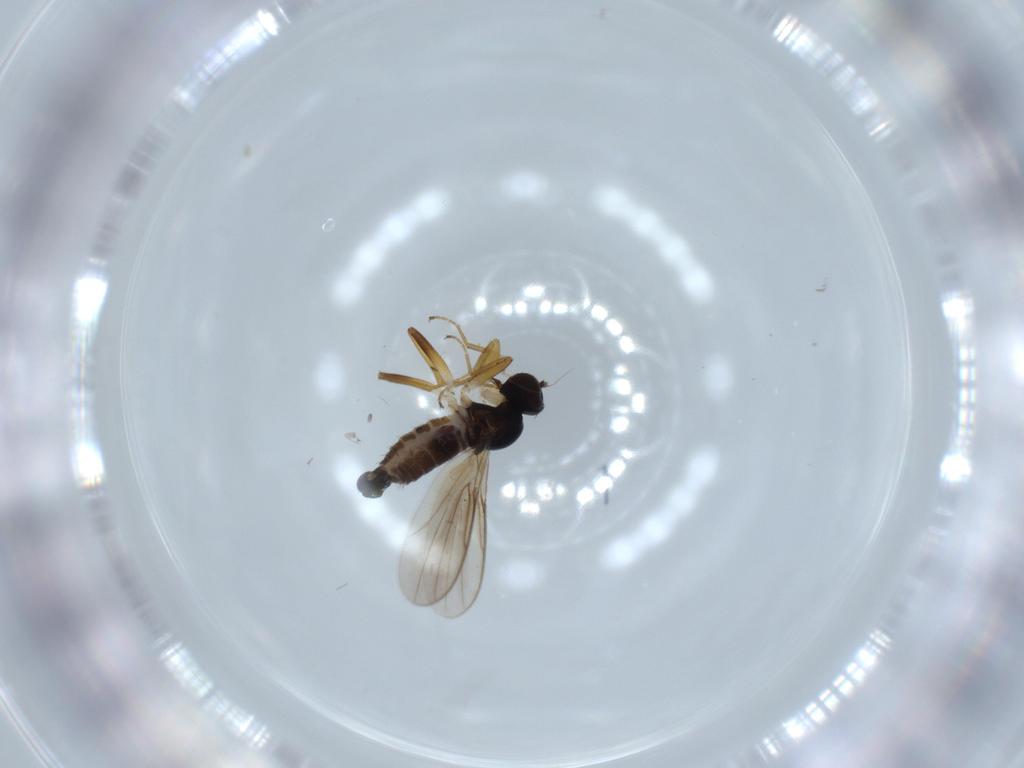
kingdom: Animalia
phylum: Arthropoda
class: Insecta
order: Diptera
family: Hybotidae
